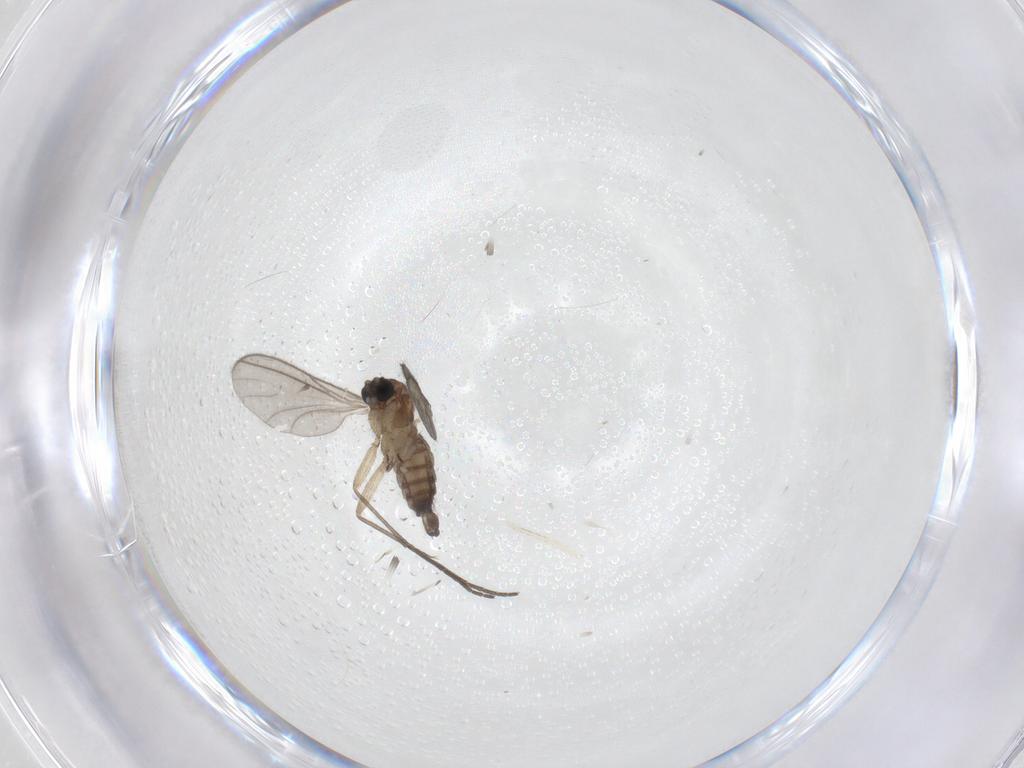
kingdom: Animalia
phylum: Arthropoda
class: Insecta
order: Diptera
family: Sciaridae
